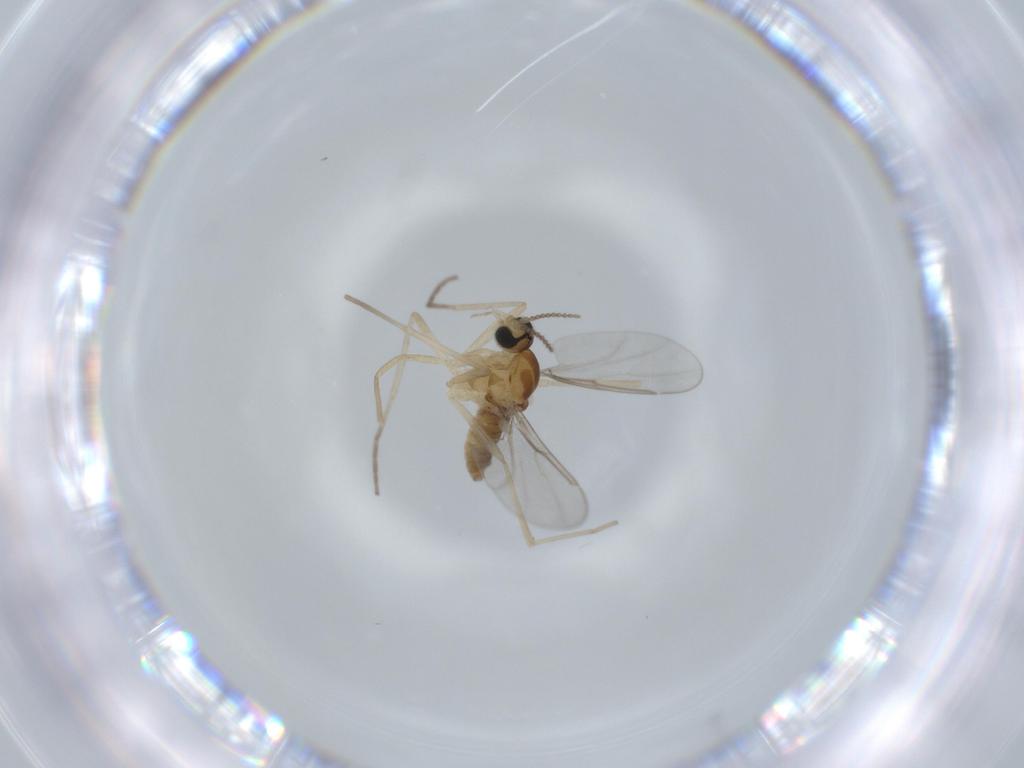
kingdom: Animalia
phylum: Arthropoda
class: Insecta
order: Diptera
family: Cecidomyiidae
